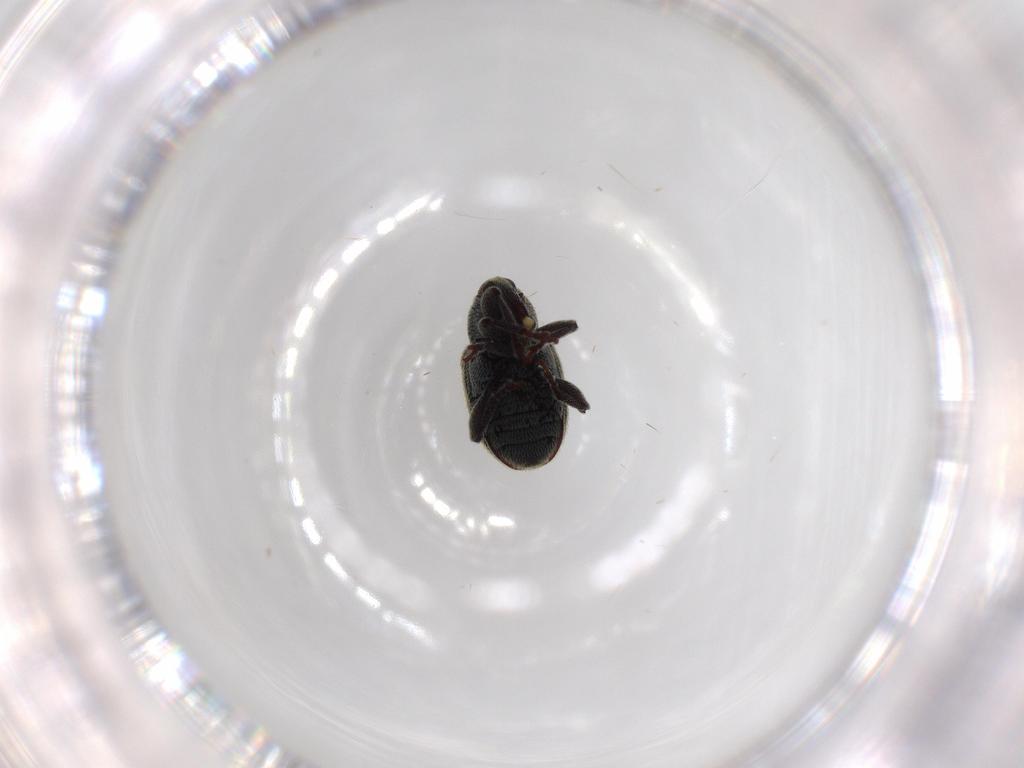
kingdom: Animalia
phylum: Arthropoda
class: Insecta
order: Coleoptera
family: Curculionidae
